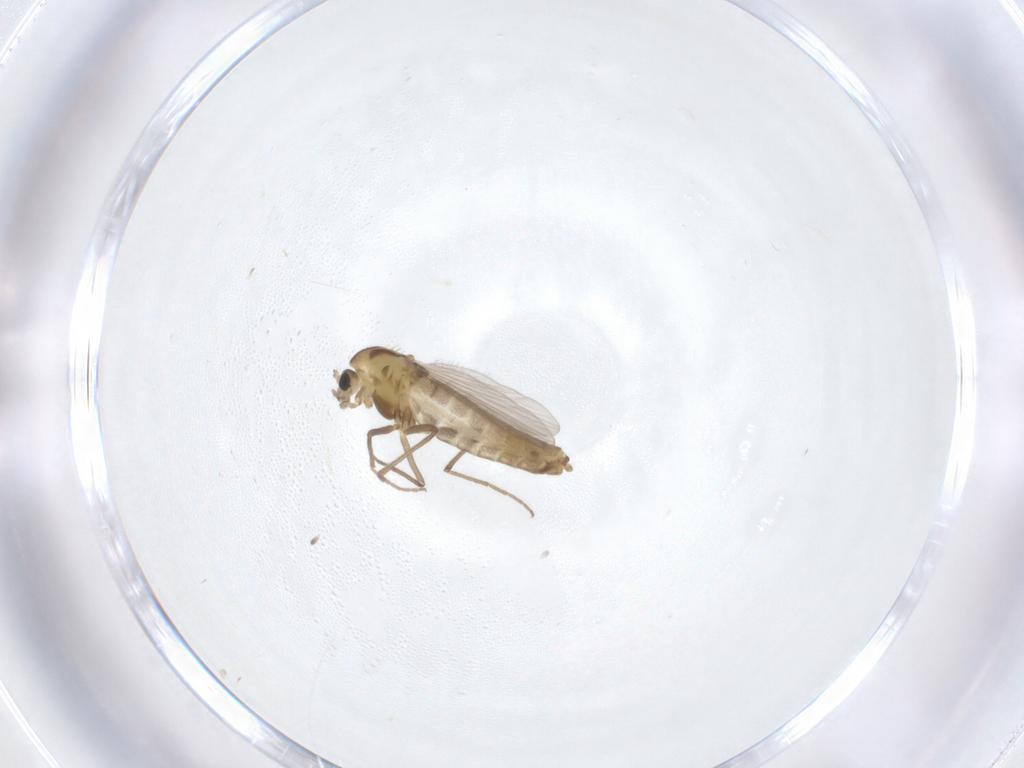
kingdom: Animalia
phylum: Arthropoda
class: Insecta
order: Diptera
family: Chironomidae
